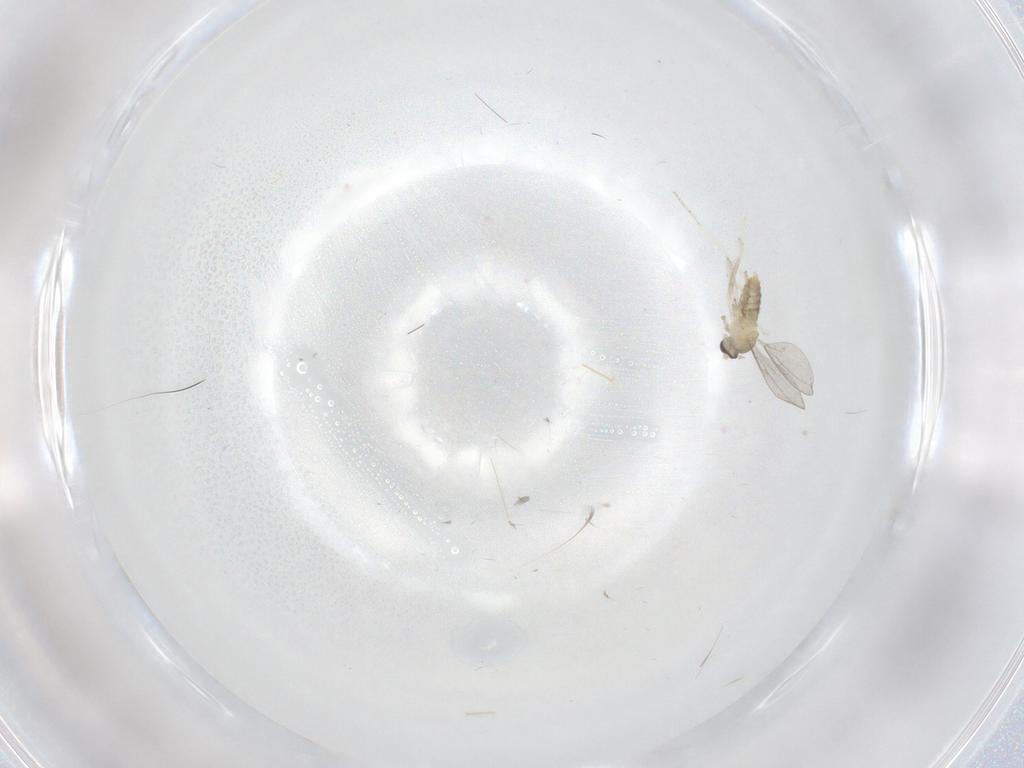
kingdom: Animalia
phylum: Arthropoda
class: Insecta
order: Diptera
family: Cecidomyiidae
